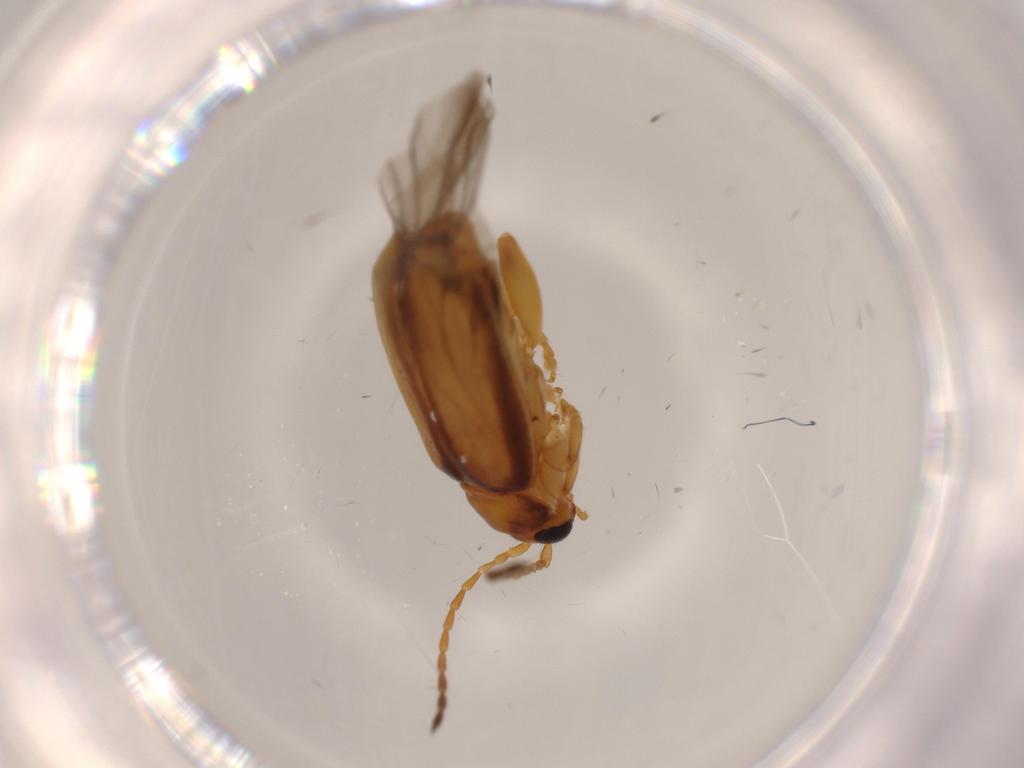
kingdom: Animalia
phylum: Arthropoda
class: Insecta
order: Coleoptera
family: Chrysomelidae
